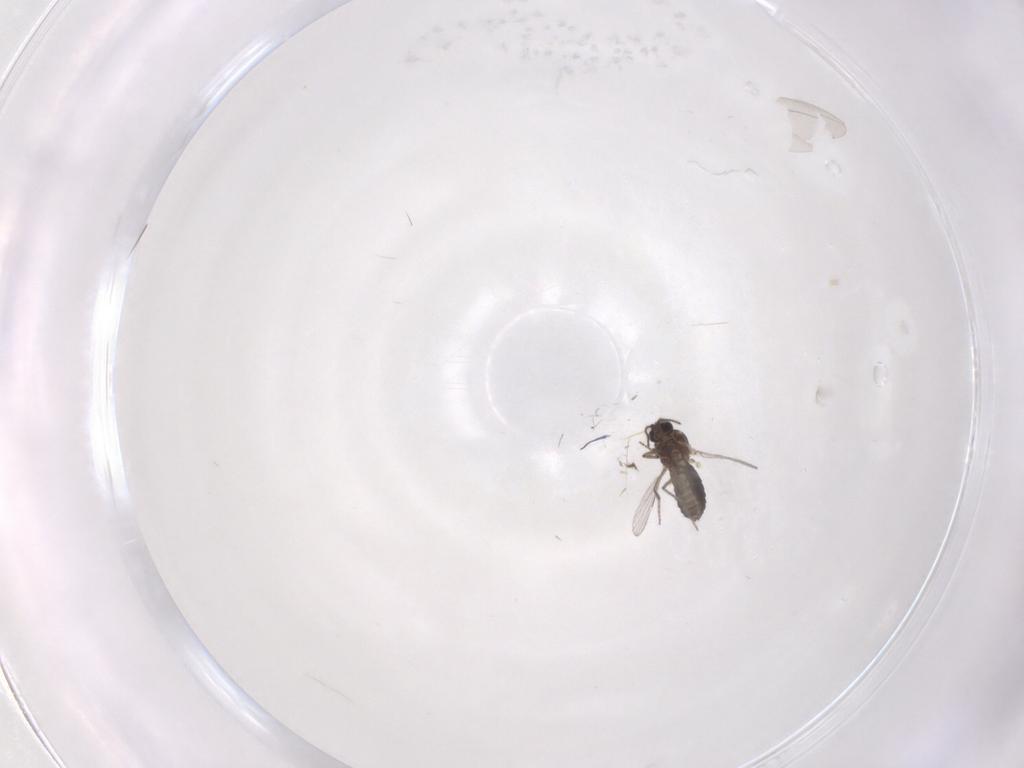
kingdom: Animalia
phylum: Arthropoda
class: Insecta
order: Diptera
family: Ceratopogonidae
